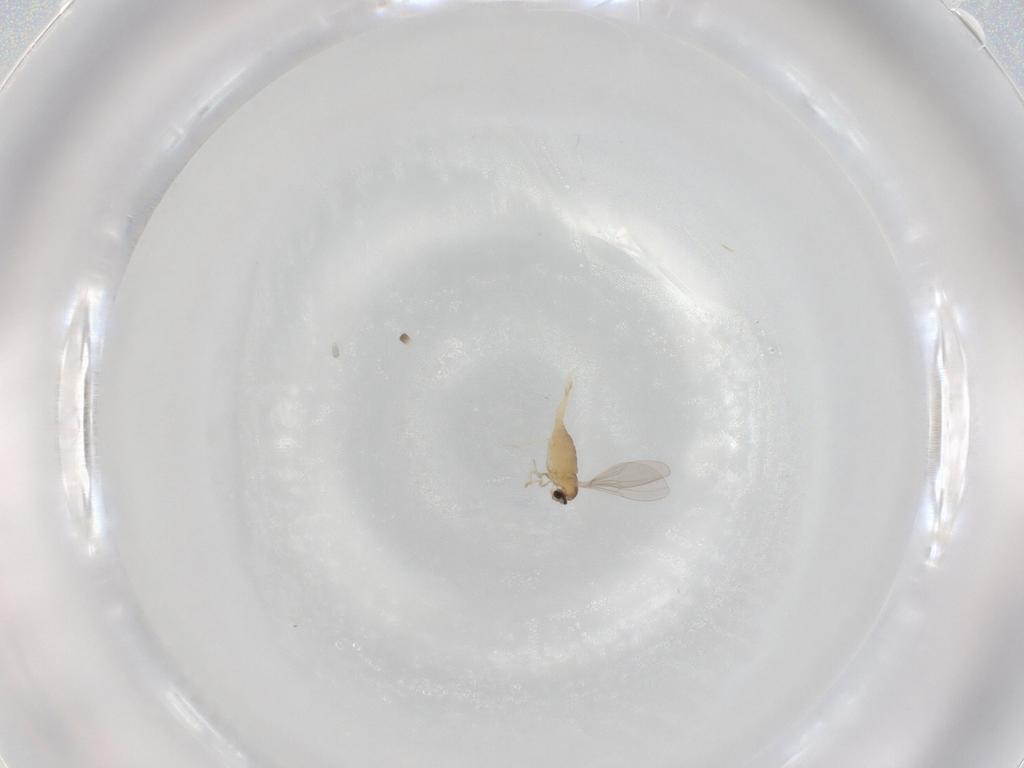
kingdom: Animalia
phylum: Arthropoda
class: Insecta
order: Diptera
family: Cecidomyiidae
